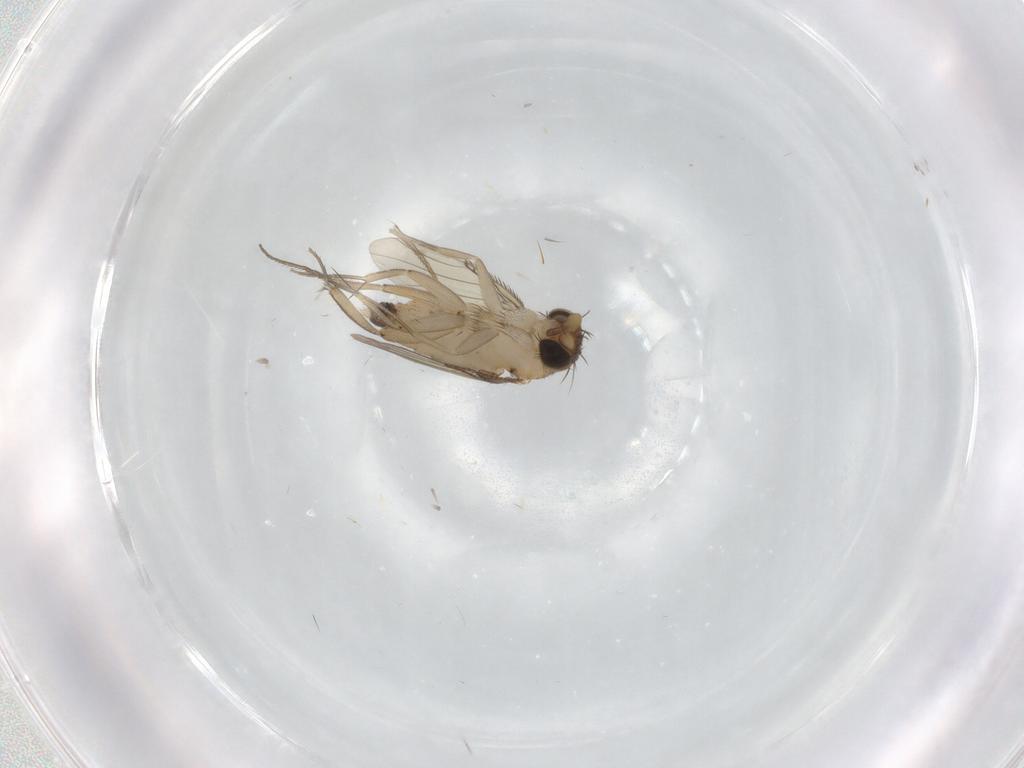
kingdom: Animalia
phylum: Arthropoda
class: Insecta
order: Diptera
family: Phoridae
